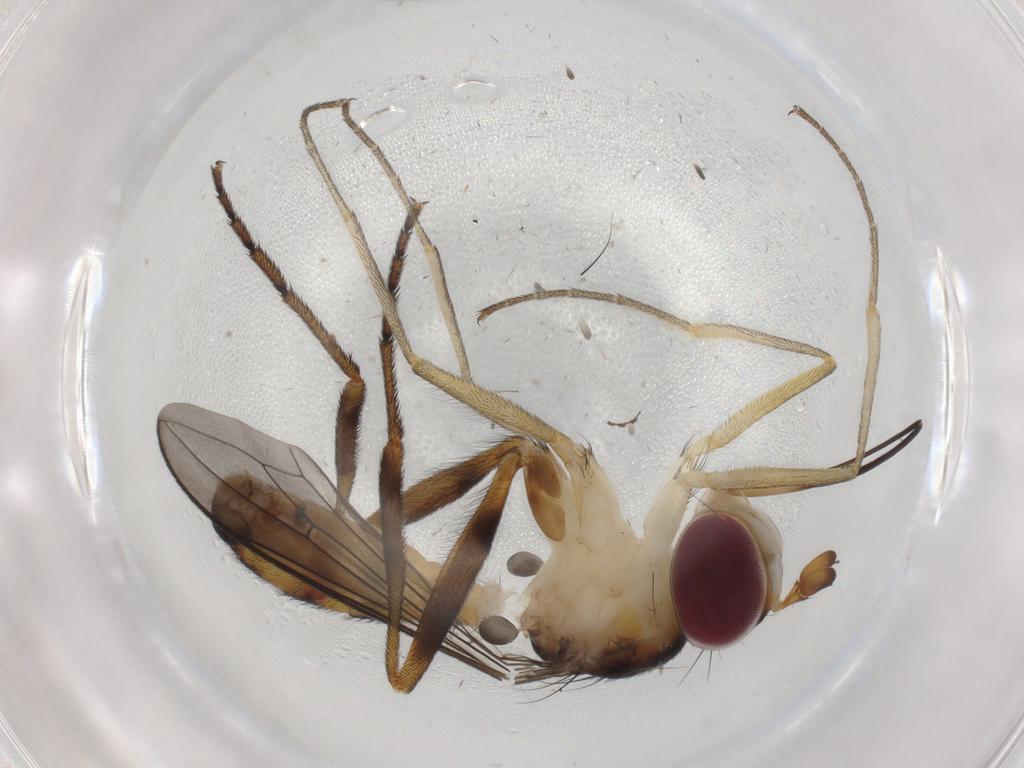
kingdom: Animalia
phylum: Arthropoda
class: Insecta
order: Diptera
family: Conopidae
